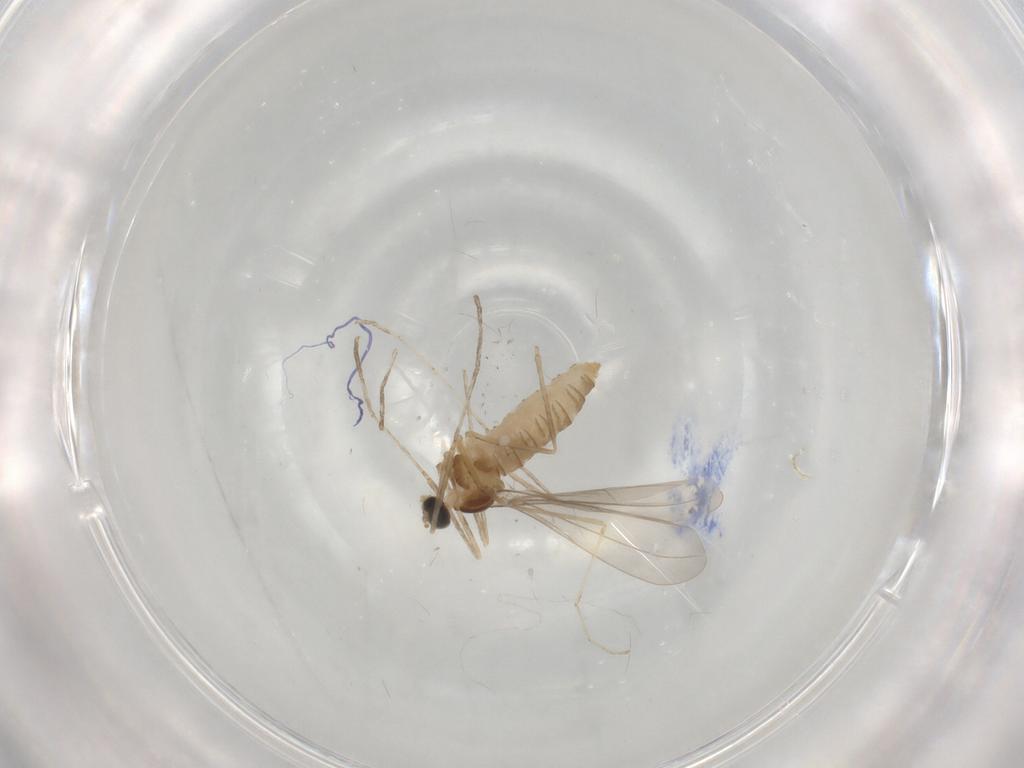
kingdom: Animalia
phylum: Arthropoda
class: Insecta
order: Diptera
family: Cecidomyiidae
